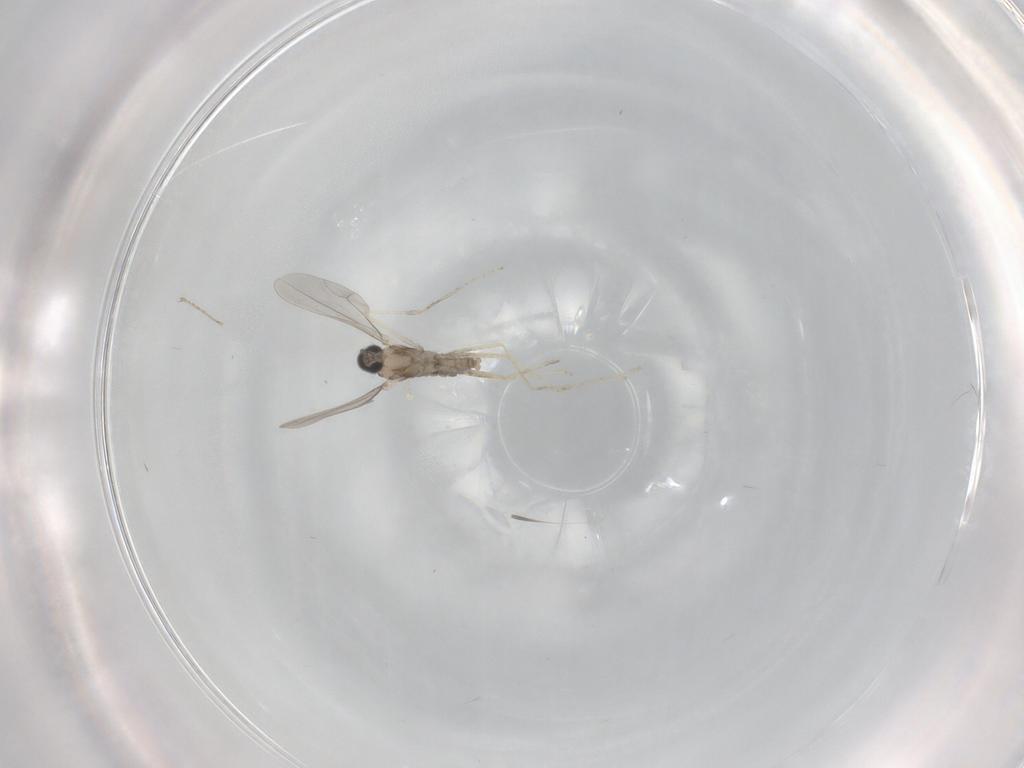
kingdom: Animalia
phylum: Arthropoda
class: Insecta
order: Diptera
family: Cecidomyiidae
